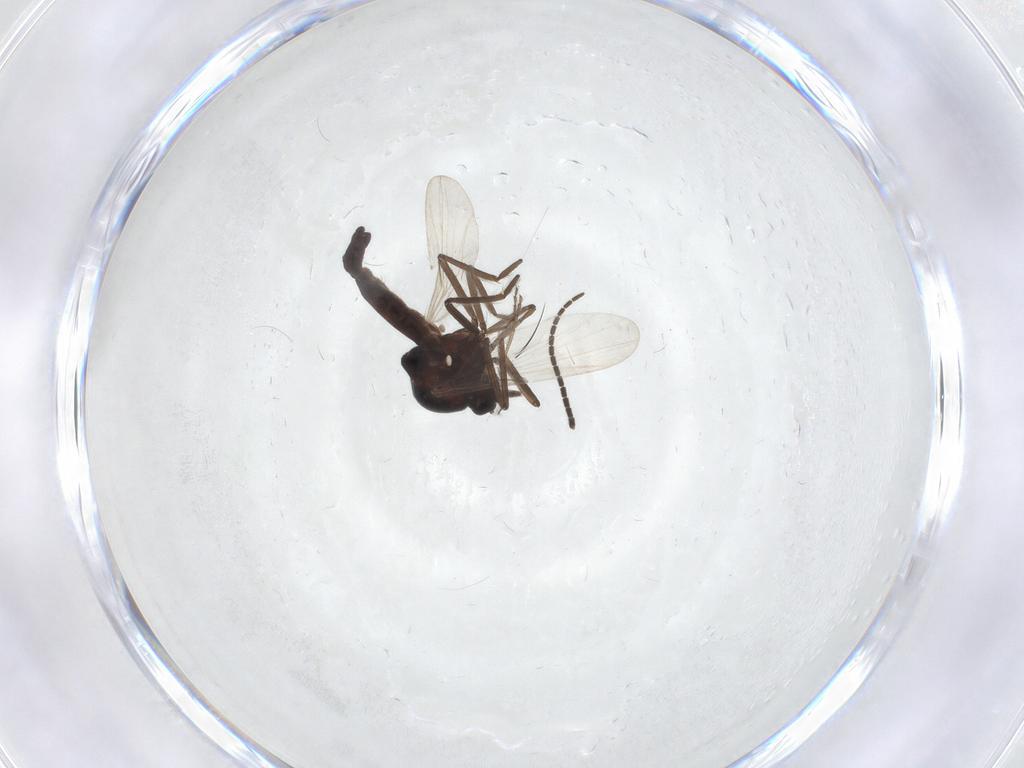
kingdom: Animalia
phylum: Arthropoda
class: Insecta
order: Diptera
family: Ceratopogonidae
